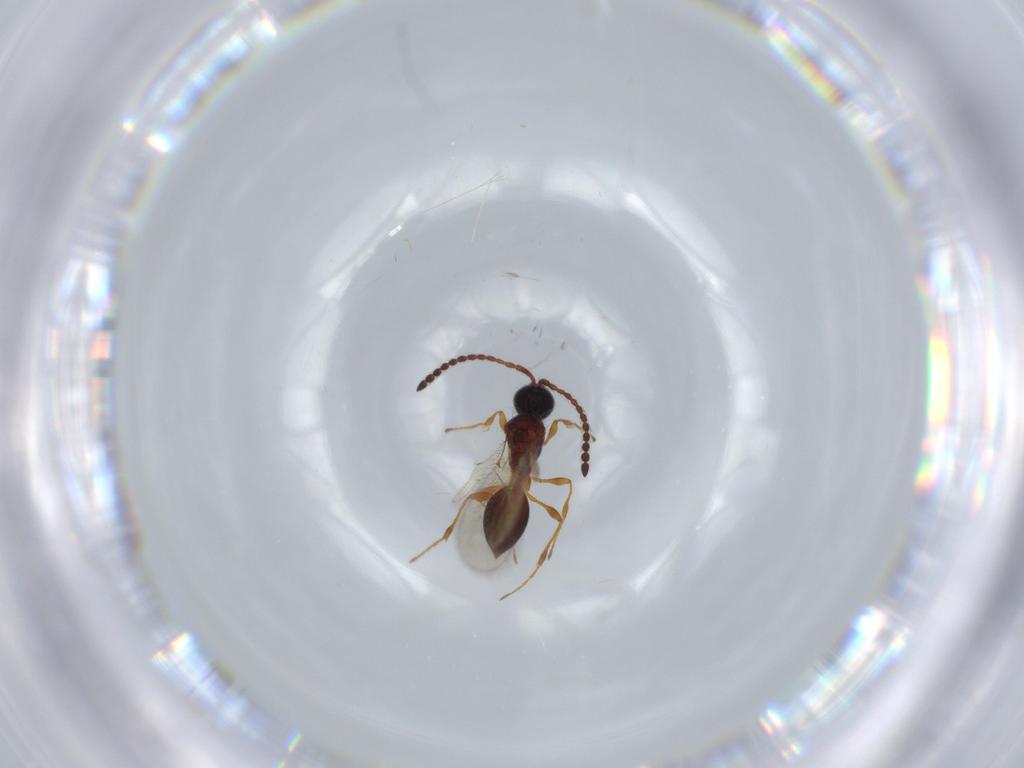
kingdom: Animalia
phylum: Arthropoda
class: Insecta
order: Hymenoptera
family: Diapriidae
